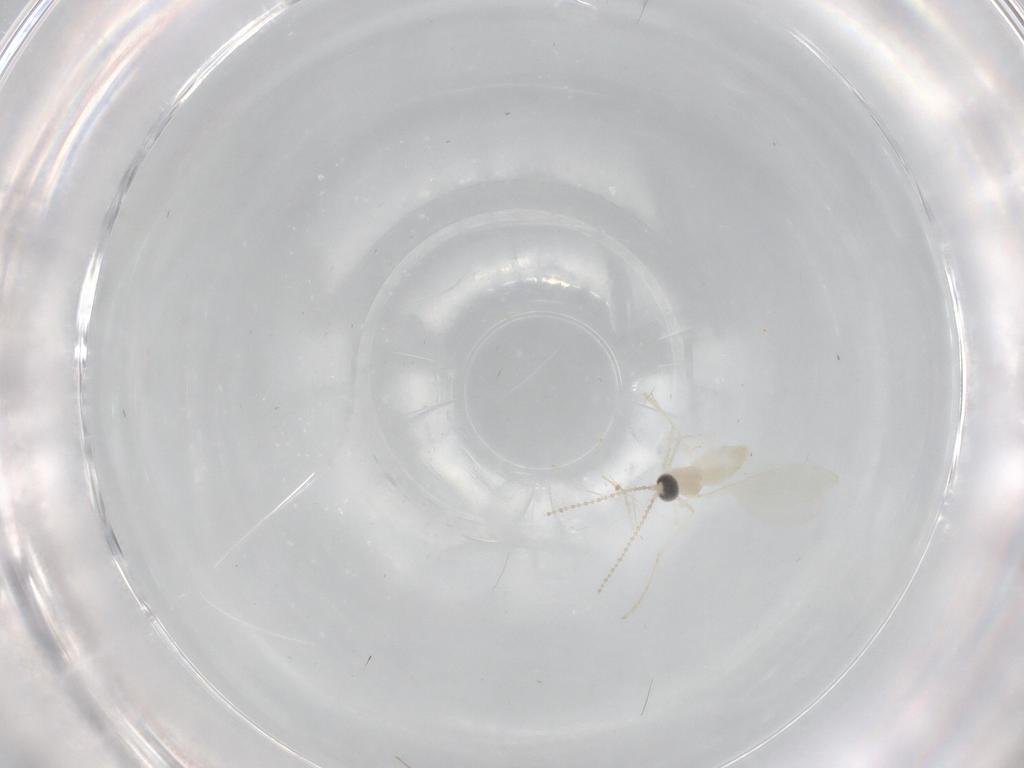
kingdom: Animalia
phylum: Arthropoda
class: Insecta
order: Diptera
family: Cecidomyiidae
